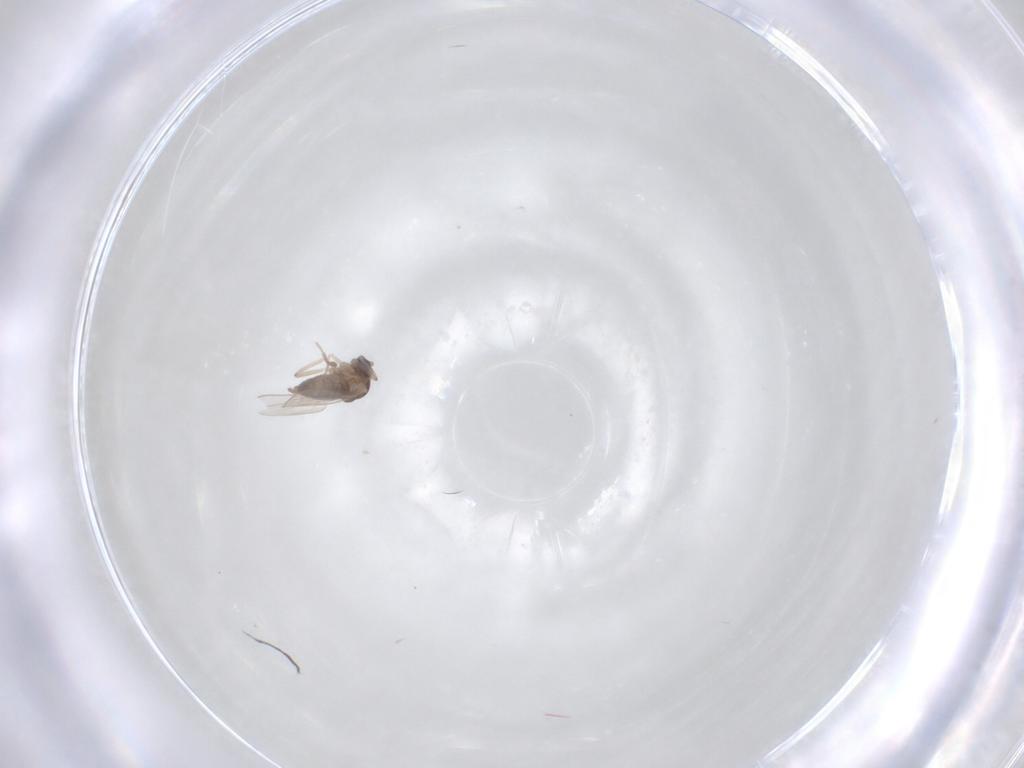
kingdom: Animalia
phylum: Arthropoda
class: Insecta
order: Diptera
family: Cecidomyiidae
